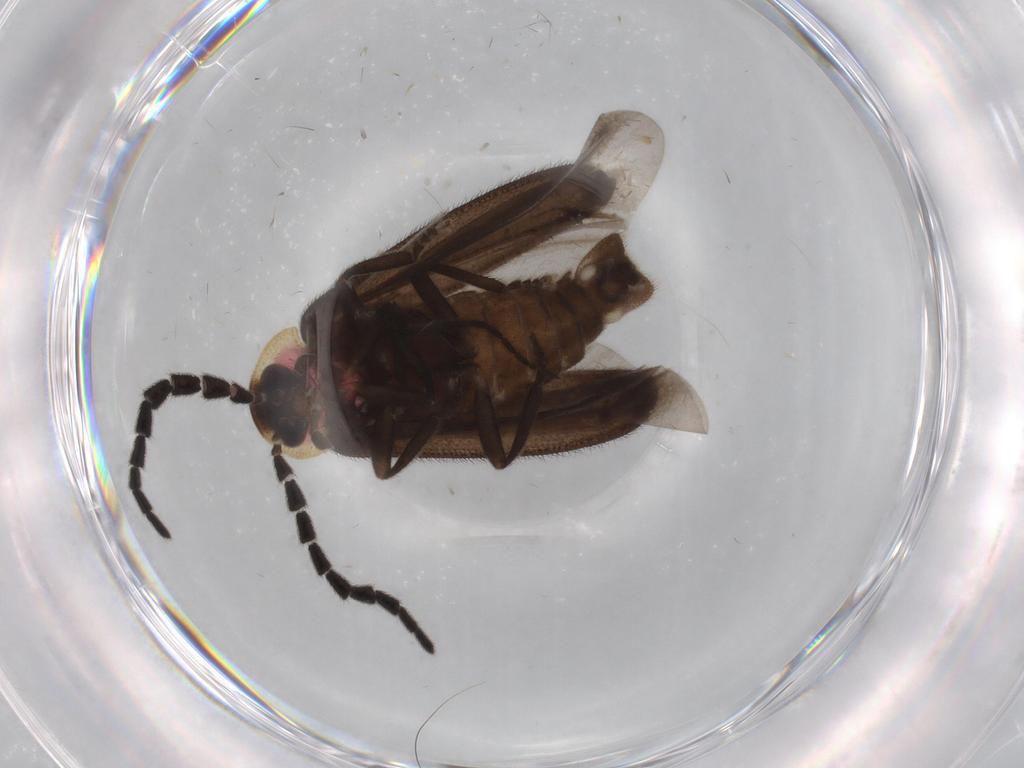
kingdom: Animalia
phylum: Arthropoda
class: Insecta
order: Coleoptera
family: Lampyridae
